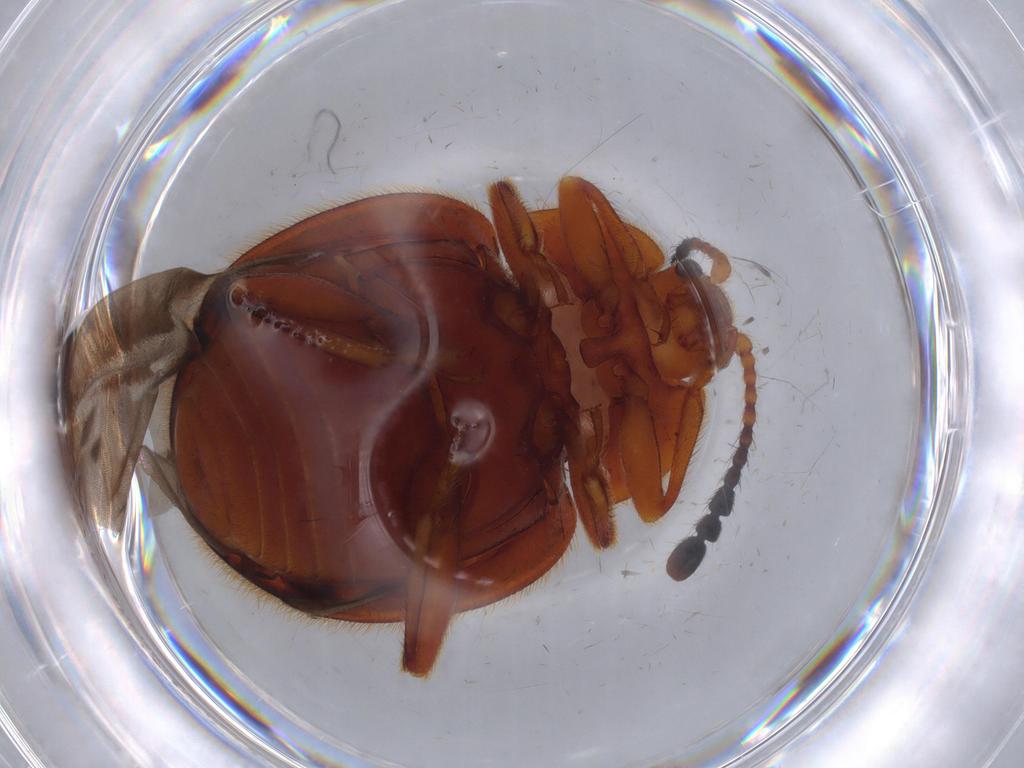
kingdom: Animalia
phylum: Arthropoda
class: Insecta
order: Coleoptera
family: Endomychidae
